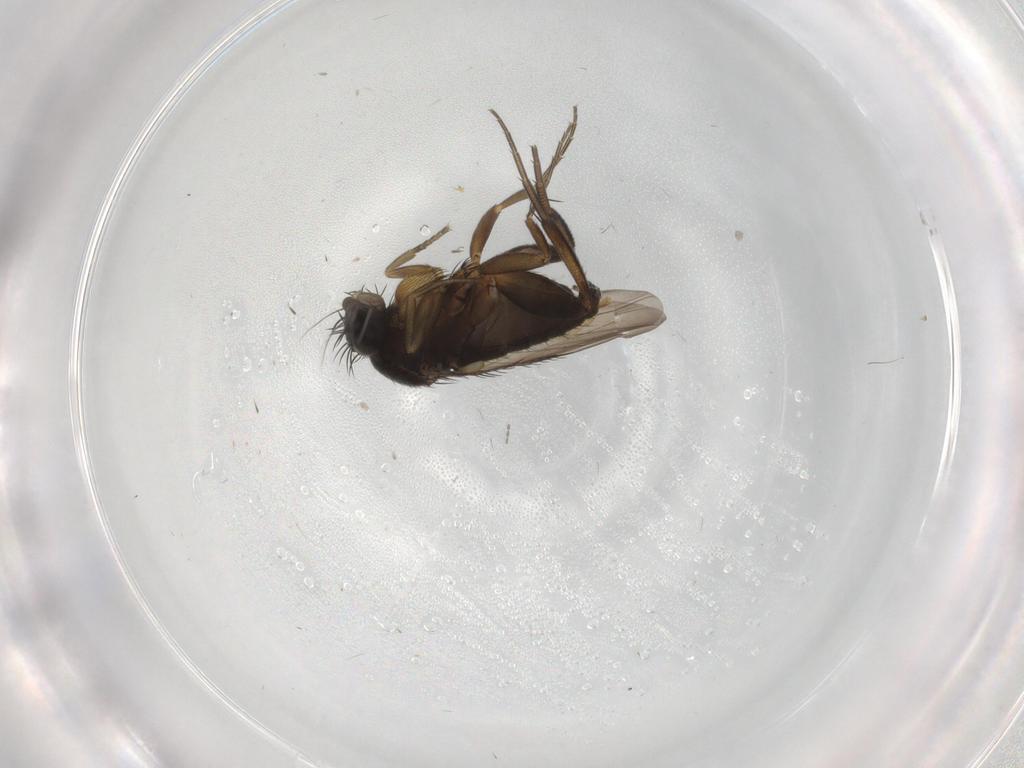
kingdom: Animalia
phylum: Arthropoda
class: Insecta
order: Diptera
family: Phoridae
